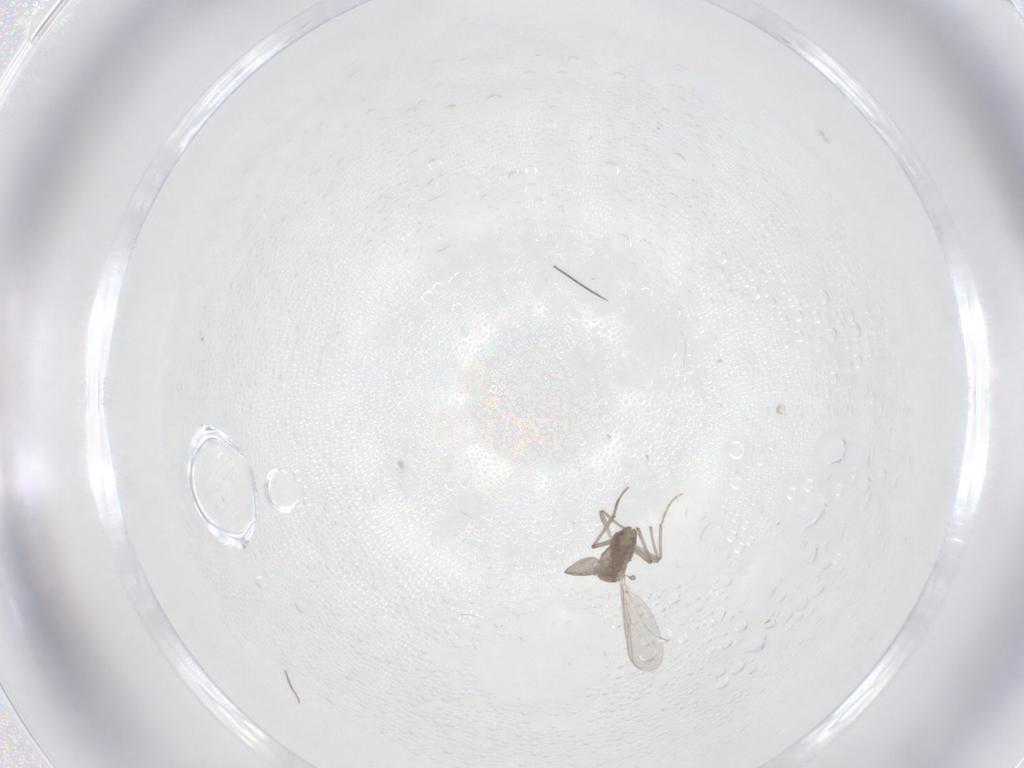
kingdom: Animalia
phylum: Arthropoda
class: Insecta
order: Diptera
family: Chironomidae
